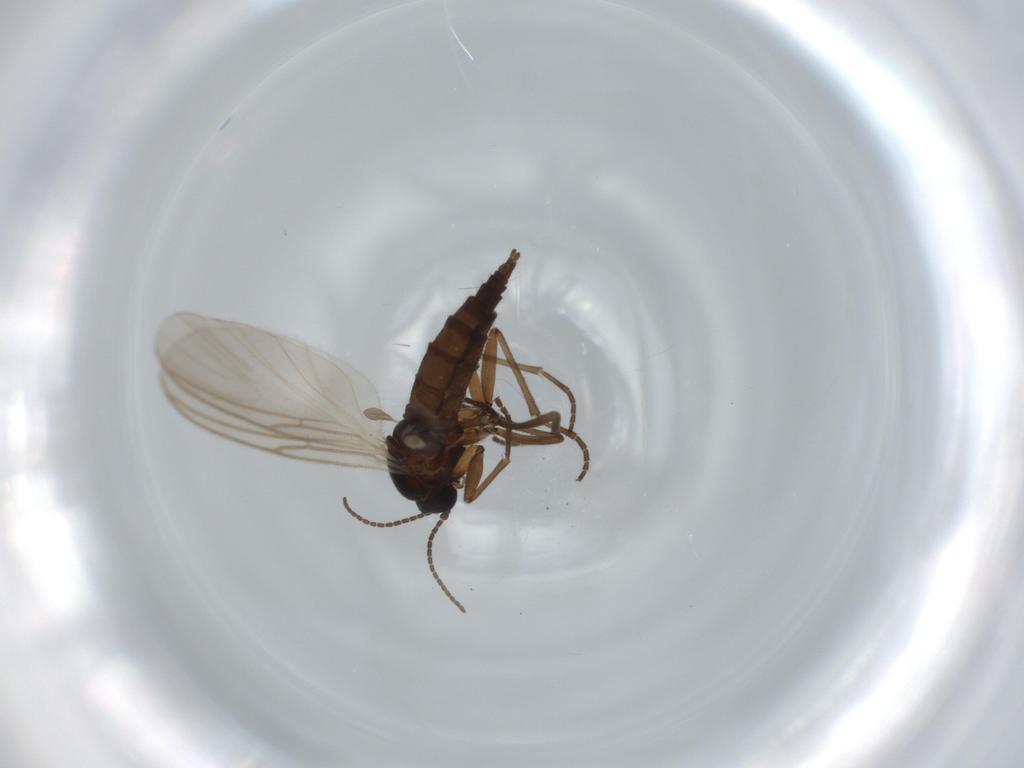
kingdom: Animalia
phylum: Arthropoda
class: Insecta
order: Diptera
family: Sciaridae
